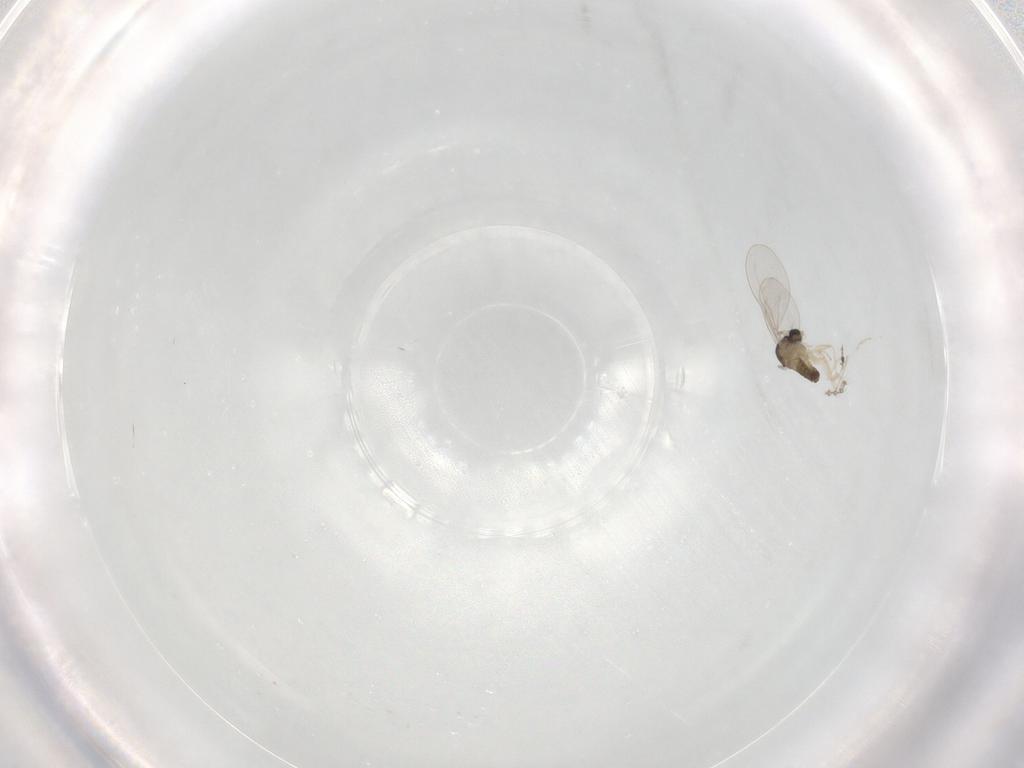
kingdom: Animalia
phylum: Arthropoda
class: Insecta
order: Diptera
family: Cecidomyiidae
